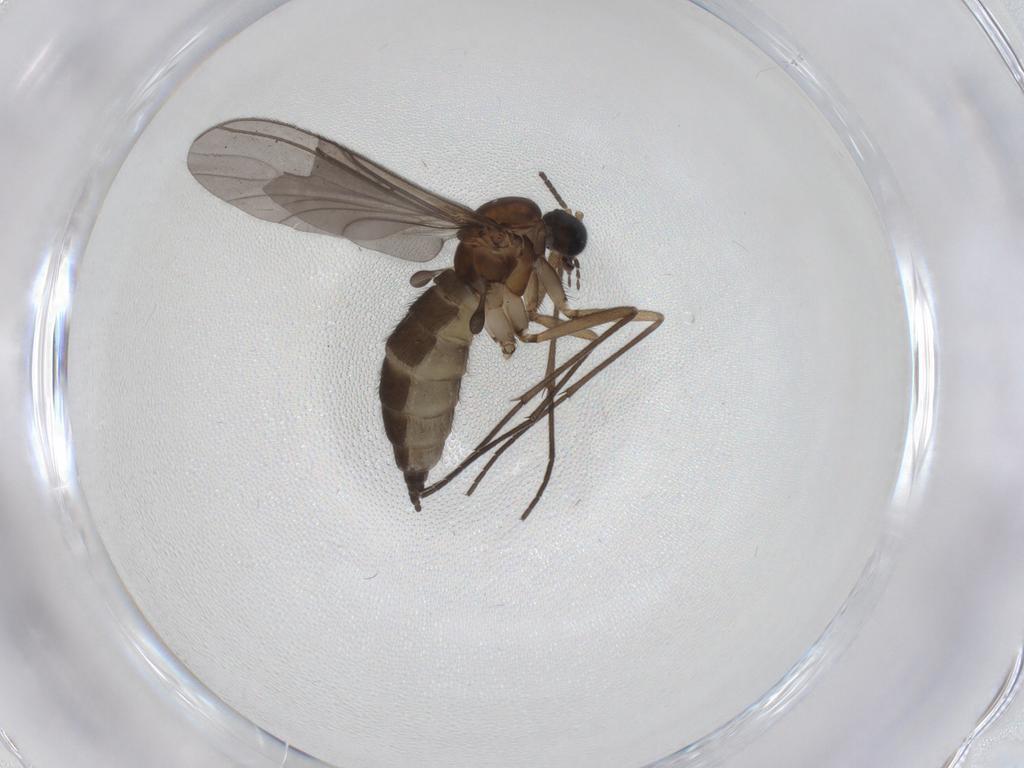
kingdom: Animalia
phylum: Arthropoda
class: Insecta
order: Diptera
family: Sciaridae
